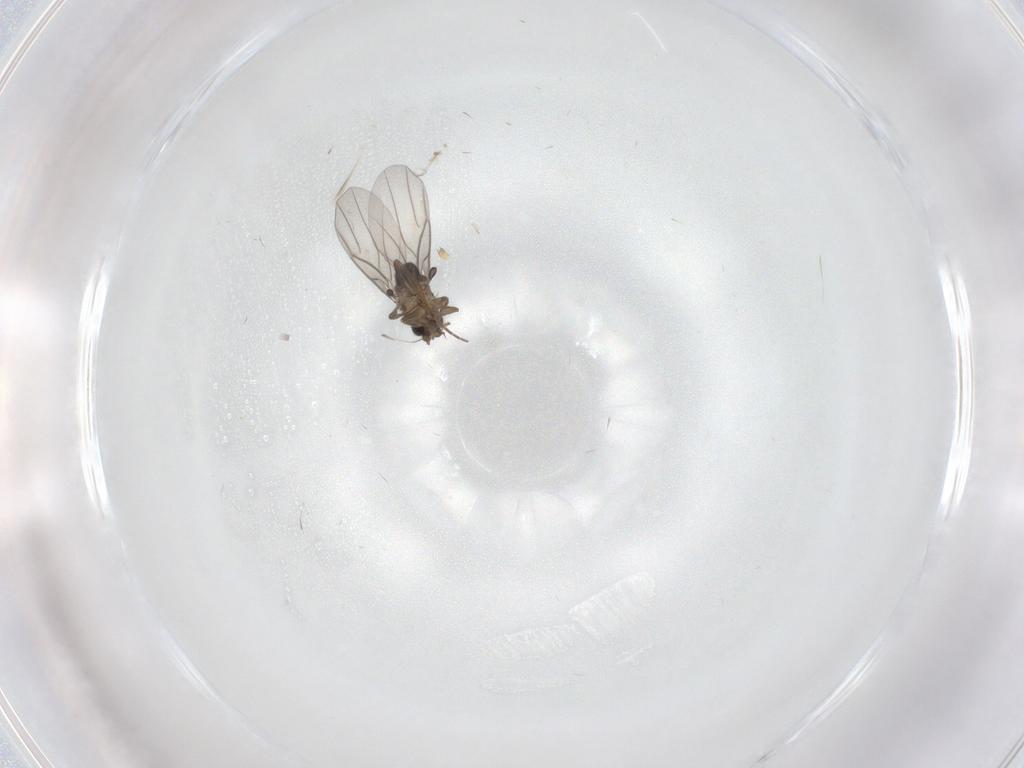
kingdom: Animalia
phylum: Arthropoda
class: Insecta
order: Diptera
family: Phoridae
